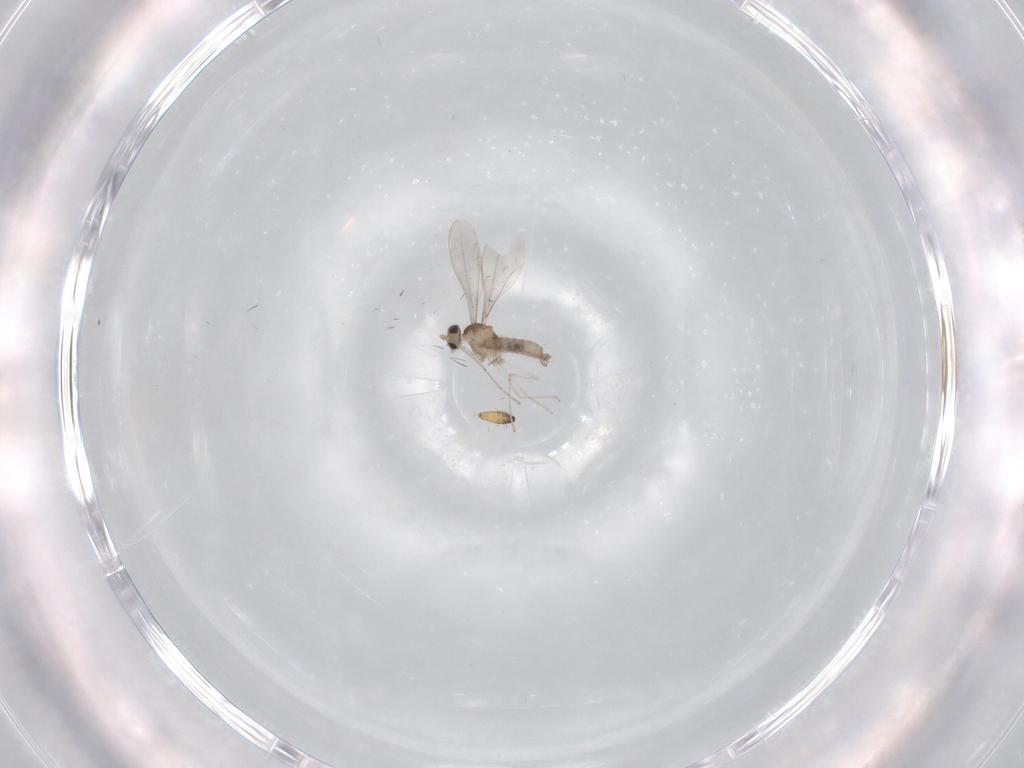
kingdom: Animalia
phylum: Arthropoda
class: Insecta
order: Diptera
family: Cecidomyiidae
